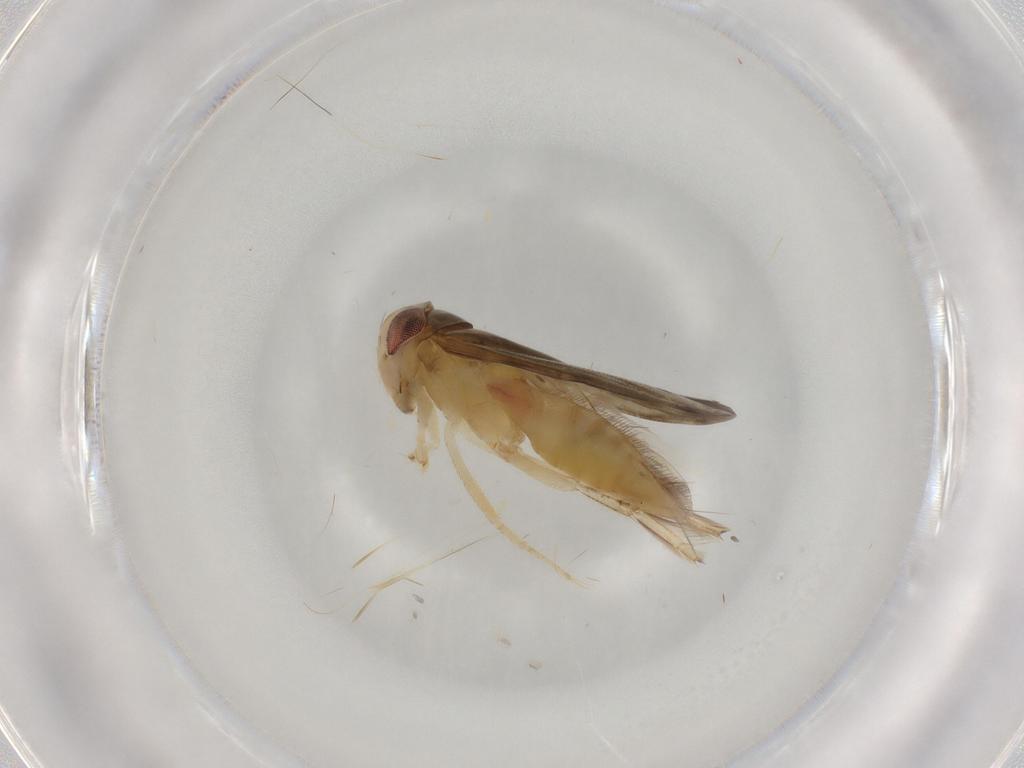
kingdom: Animalia
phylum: Arthropoda
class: Insecta
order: Hemiptera
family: Corixidae
